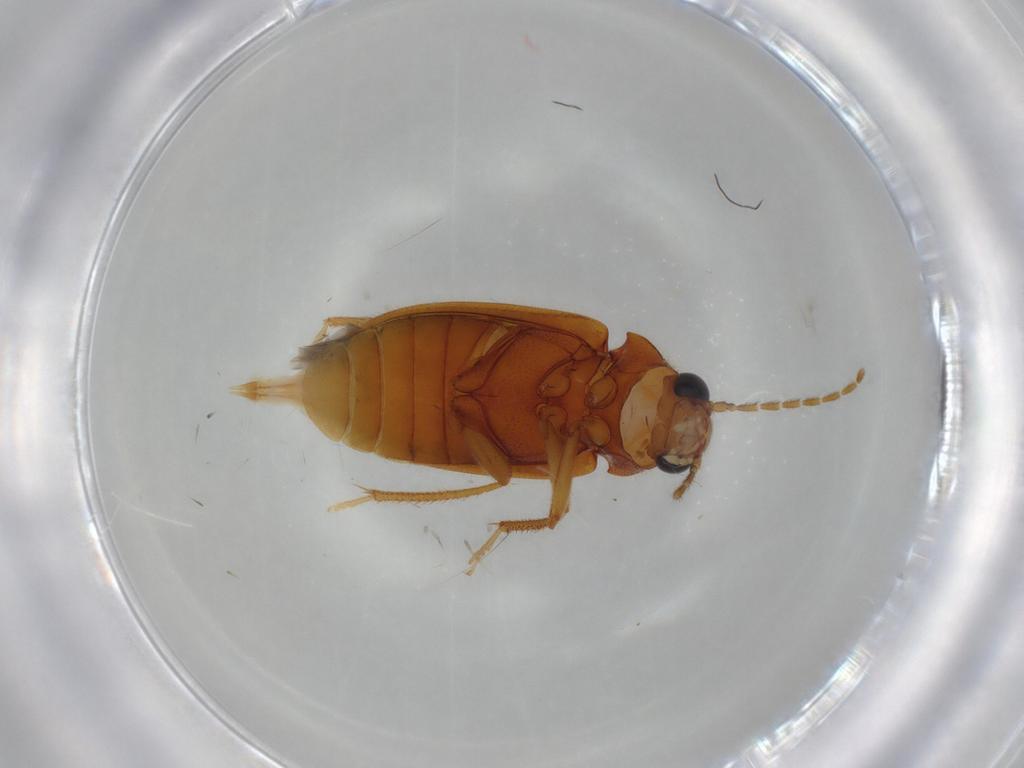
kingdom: Animalia
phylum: Arthropoda
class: Insecta
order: Coleoptera
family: Ptilodactylidae
